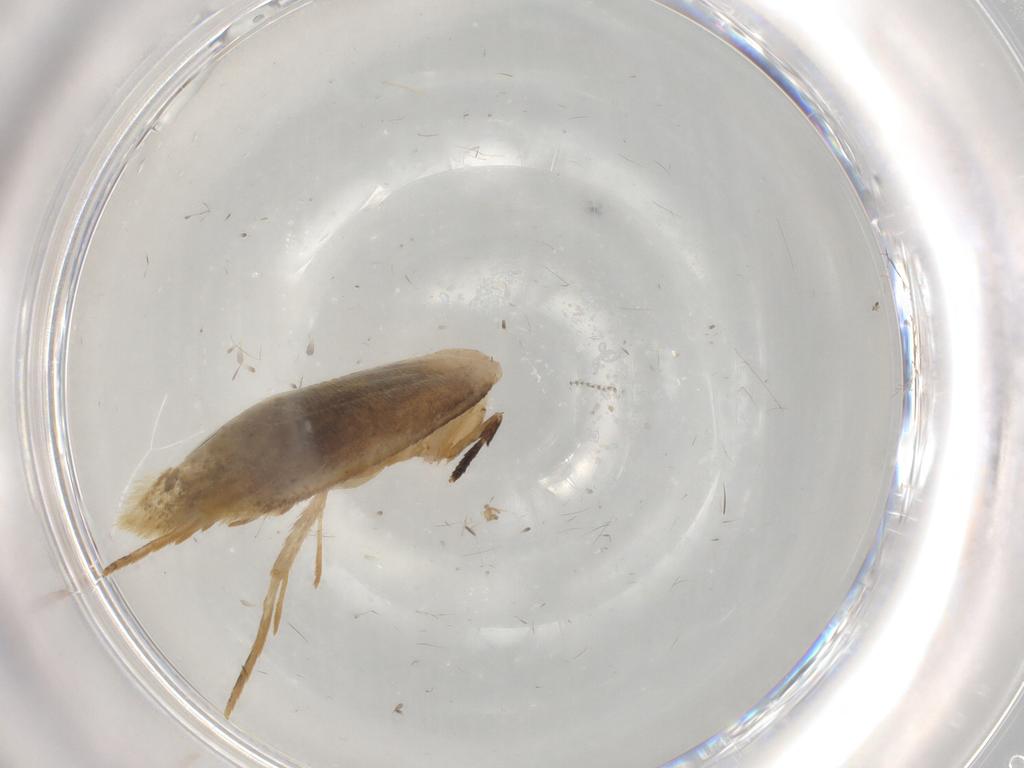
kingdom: Animalia
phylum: Arthropoda
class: Insecta
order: Lepidoptera
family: Tineidae
